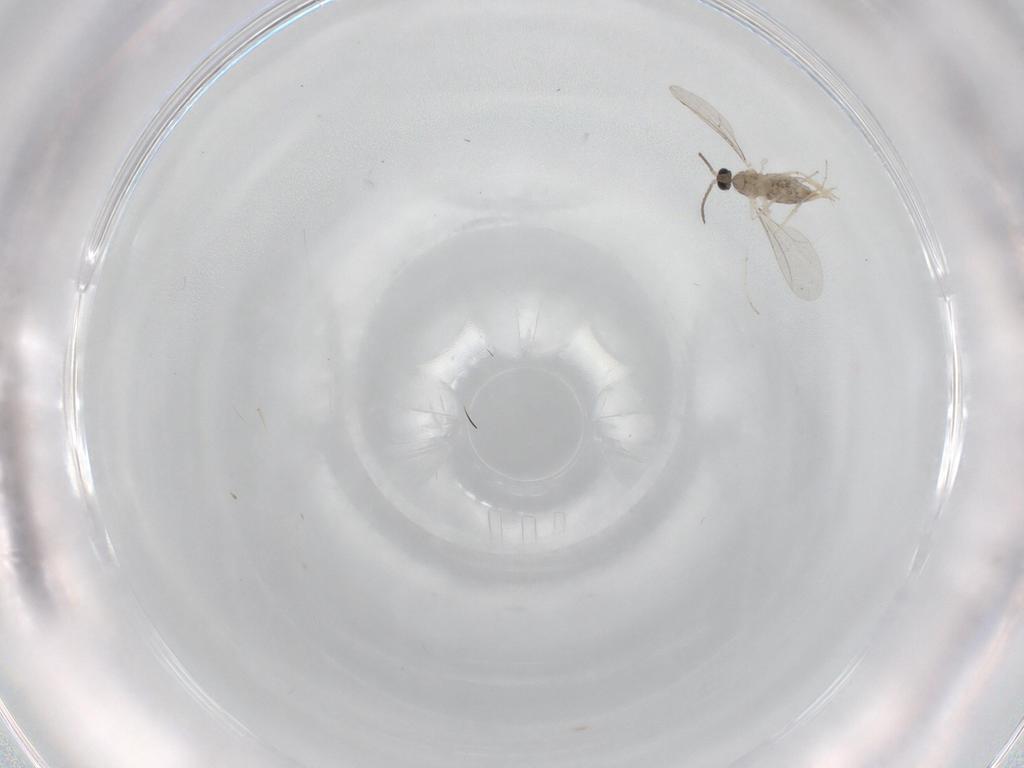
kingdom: Animalia
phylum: Arthropoda
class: Insecta
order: Diptera
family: Cecidomyiidae
